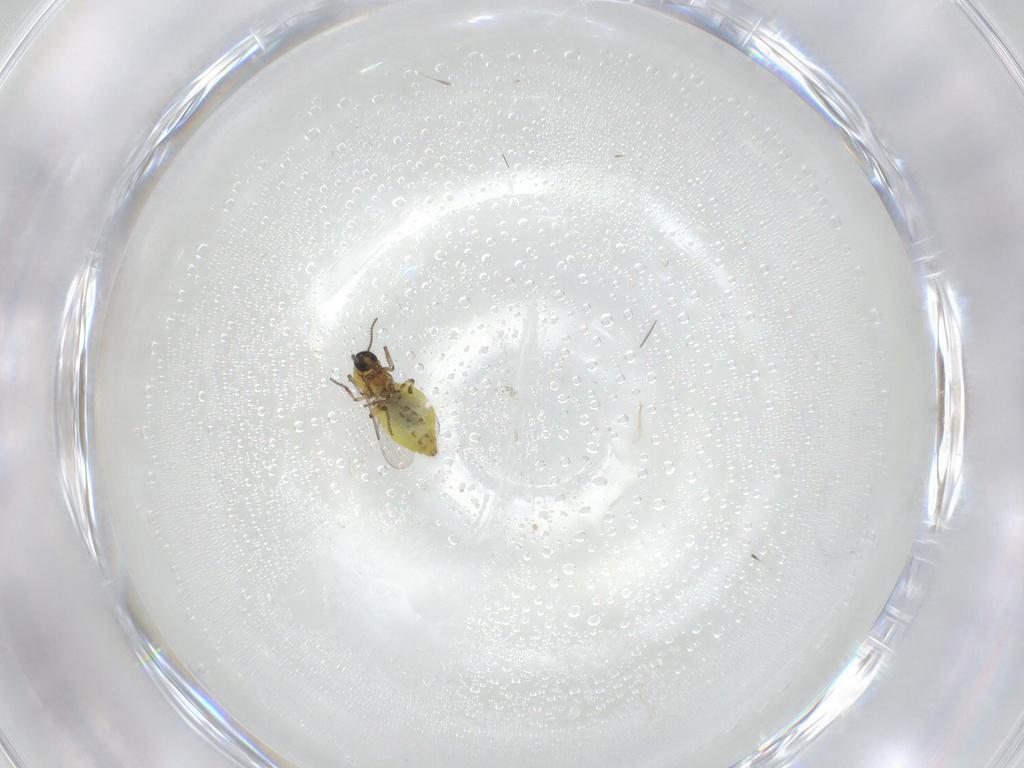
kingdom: Animalia
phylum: Arthropoda
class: Insecta
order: Diptera
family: Ceratopogonidae
